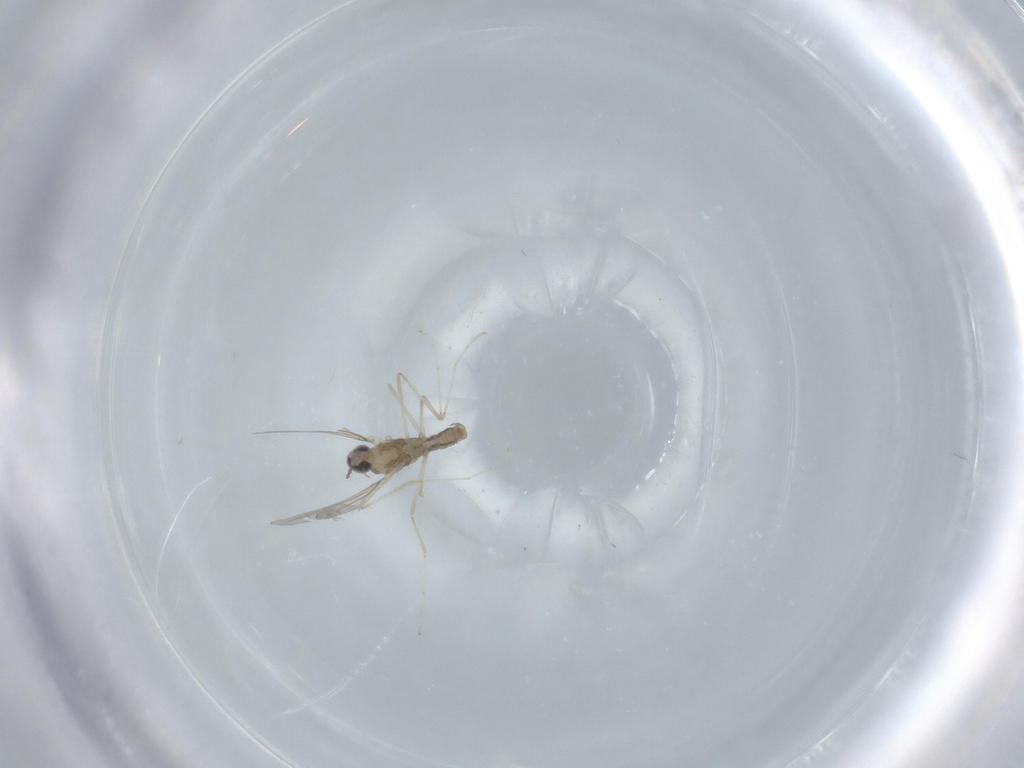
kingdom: Animalia
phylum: Arthropoda
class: Insecta
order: Diptera
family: Cecidomyiidae
